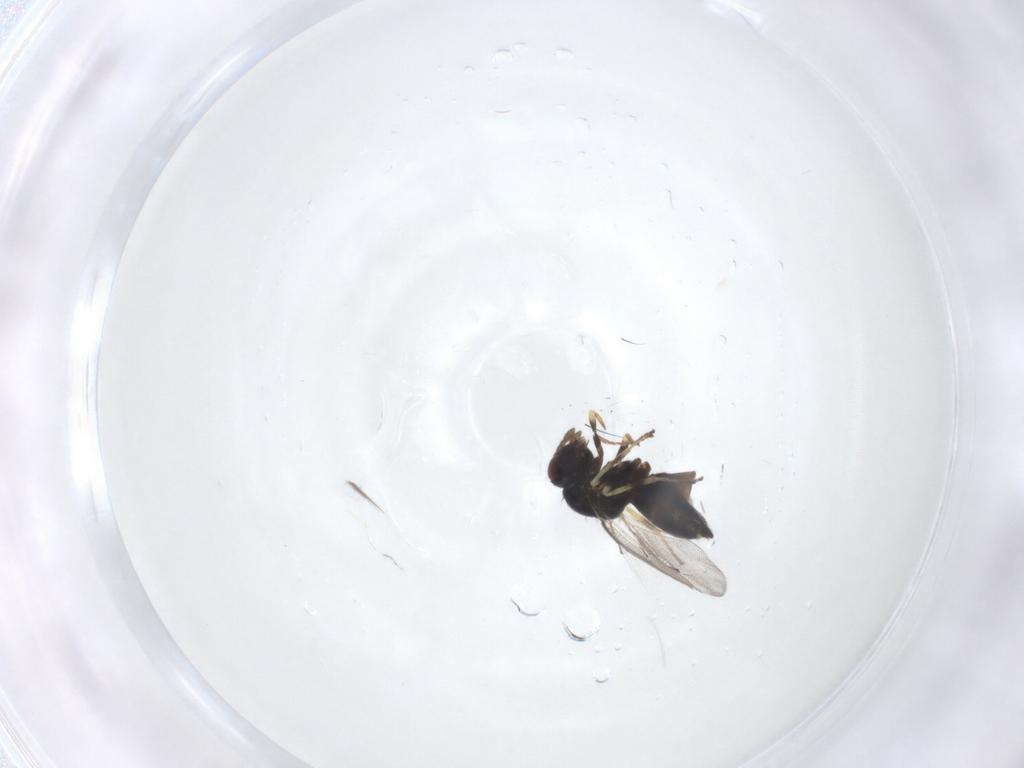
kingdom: Animalia
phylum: Arthropoda
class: Insecta
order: Hymenoptera
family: Eulophidae
